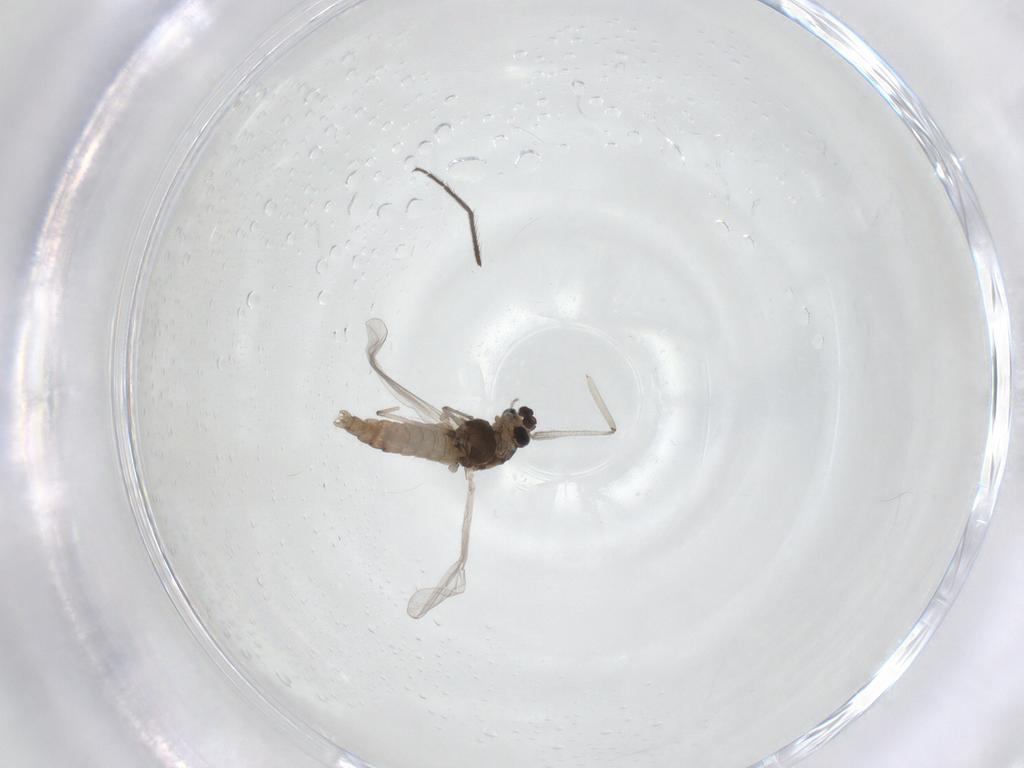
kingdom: Animalia
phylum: Arthropoda
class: Insecta
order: Diptera
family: Chironomidae
